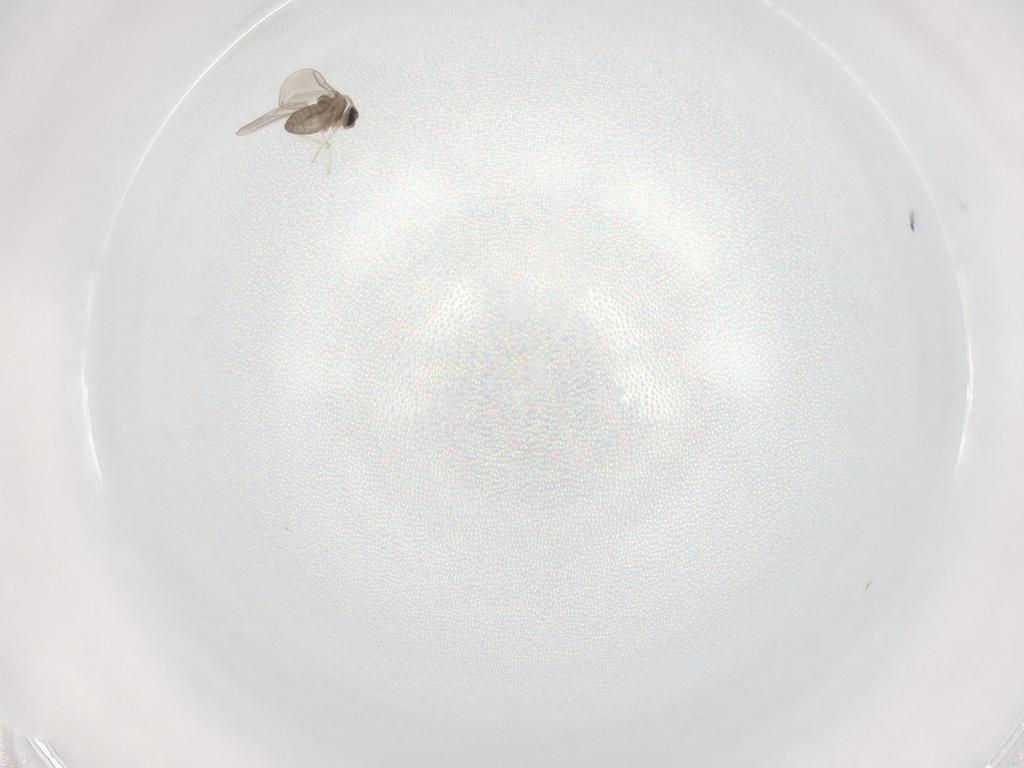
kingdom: Animalia
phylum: Arthropoda
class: Insecta
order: Diptera
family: Cecidomyiidae
